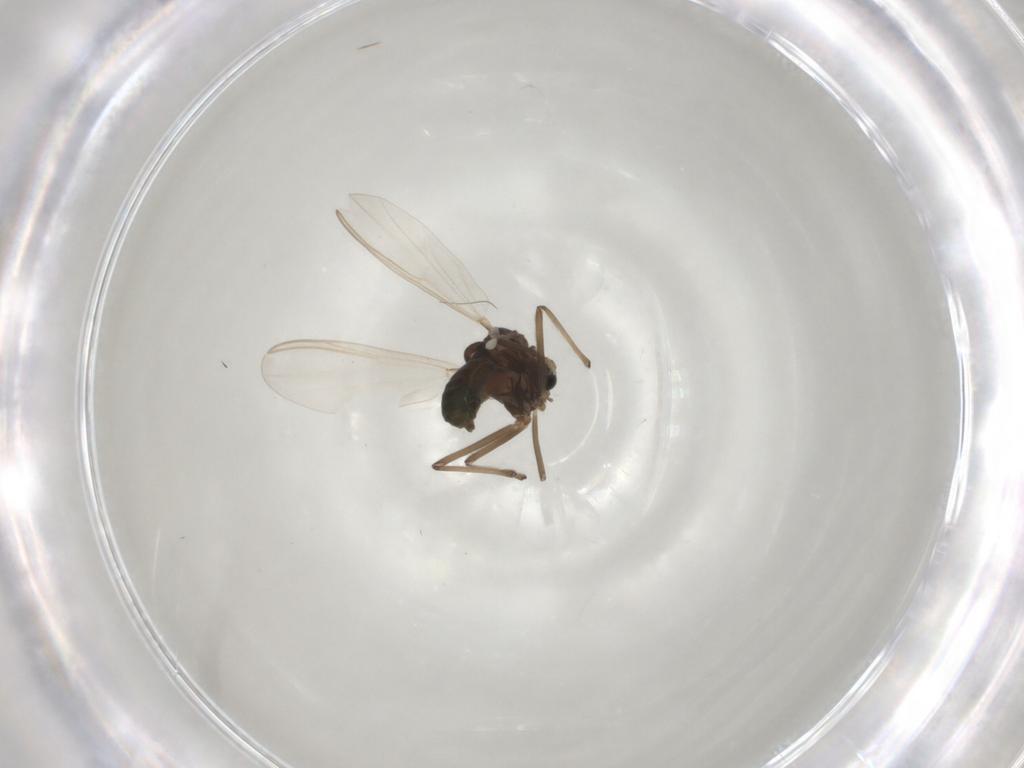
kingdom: Animalia
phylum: Arthropoda
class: Insecta
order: Diptera
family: Chironomidae
